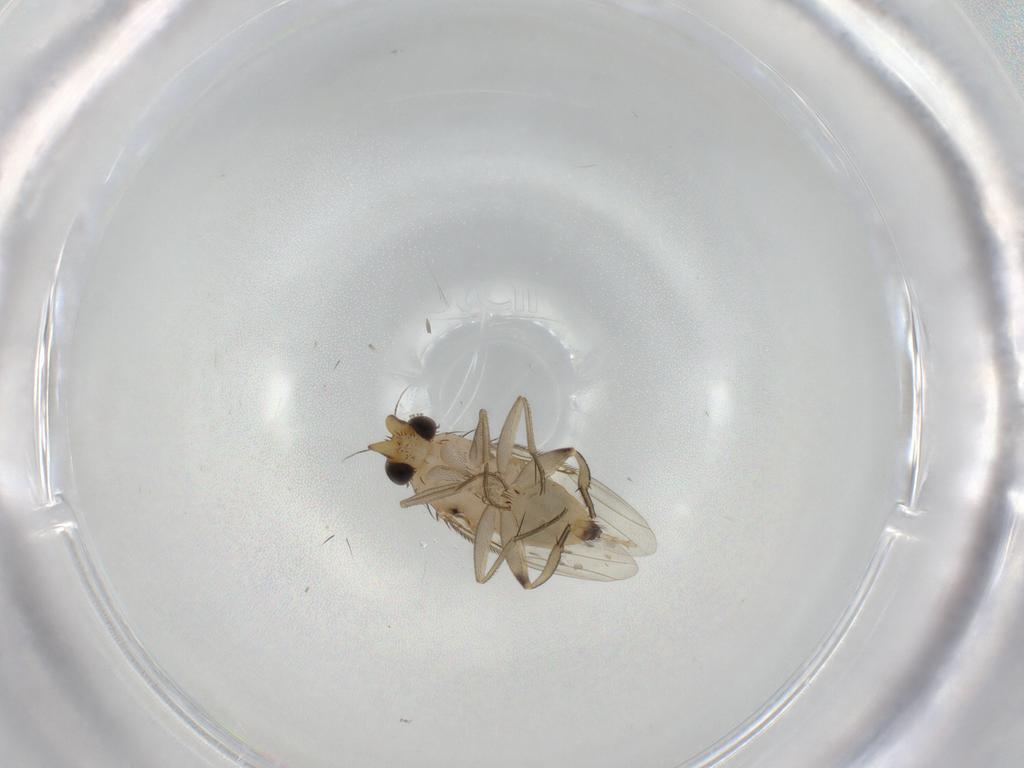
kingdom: Animalia
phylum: Arthropoda
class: Insecta
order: Diptera
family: Phoridae
